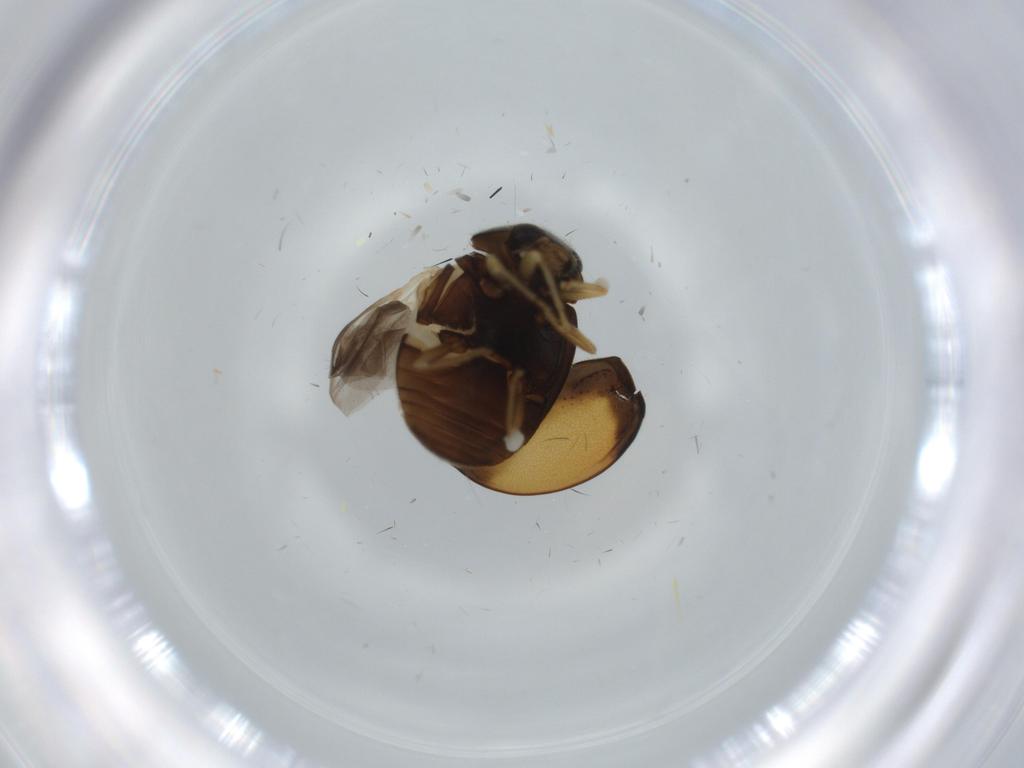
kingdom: Animalia
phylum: Arthropoda
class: Insecta
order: Coleoptera
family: Coccinellidae
